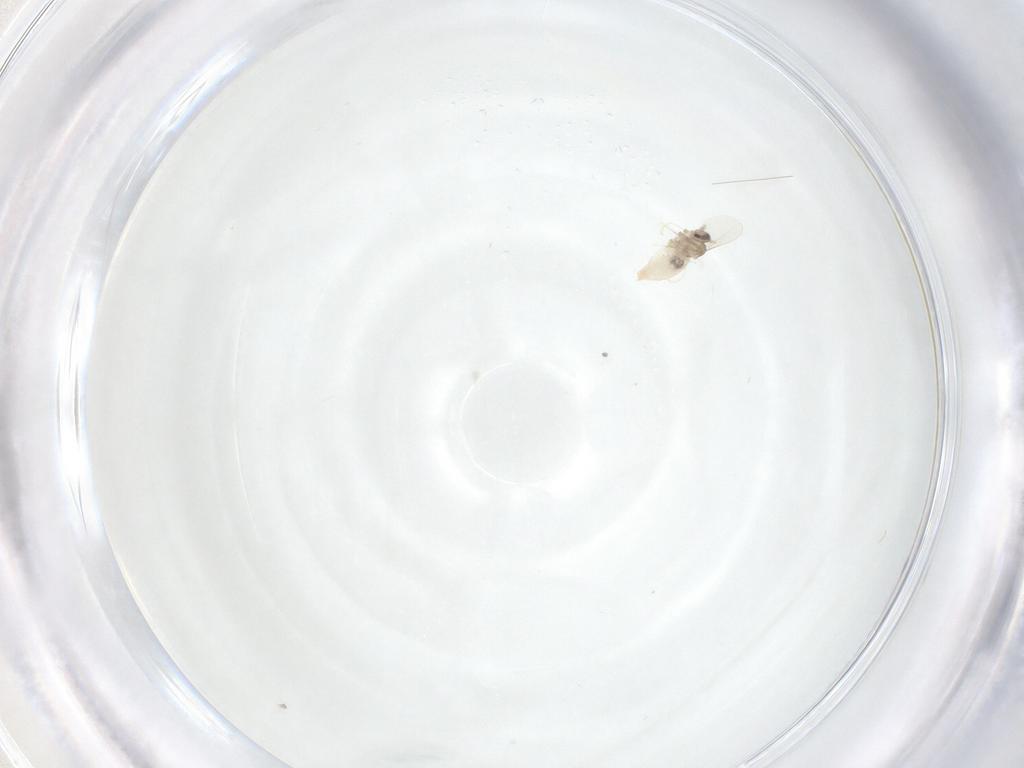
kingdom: Animalia
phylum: Arthropoda
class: Insecta
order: Diptera
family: Cecidomyiidae
